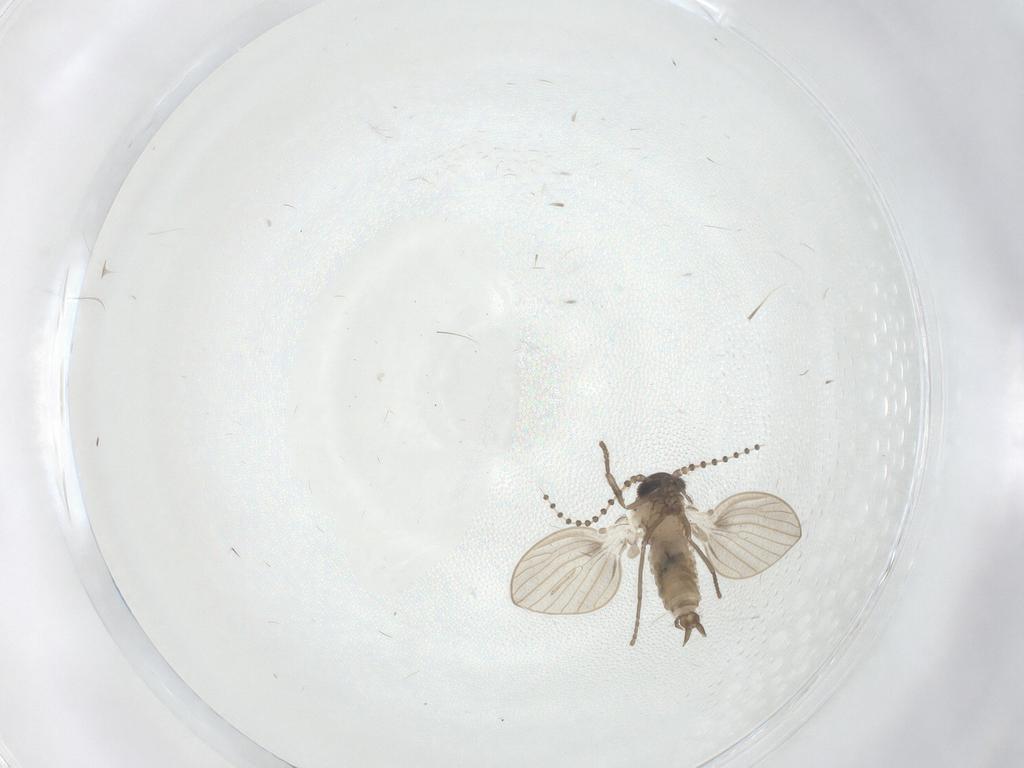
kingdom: Animalia
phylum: Arthropoda
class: Insecta
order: Diptera
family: Psychodidae
